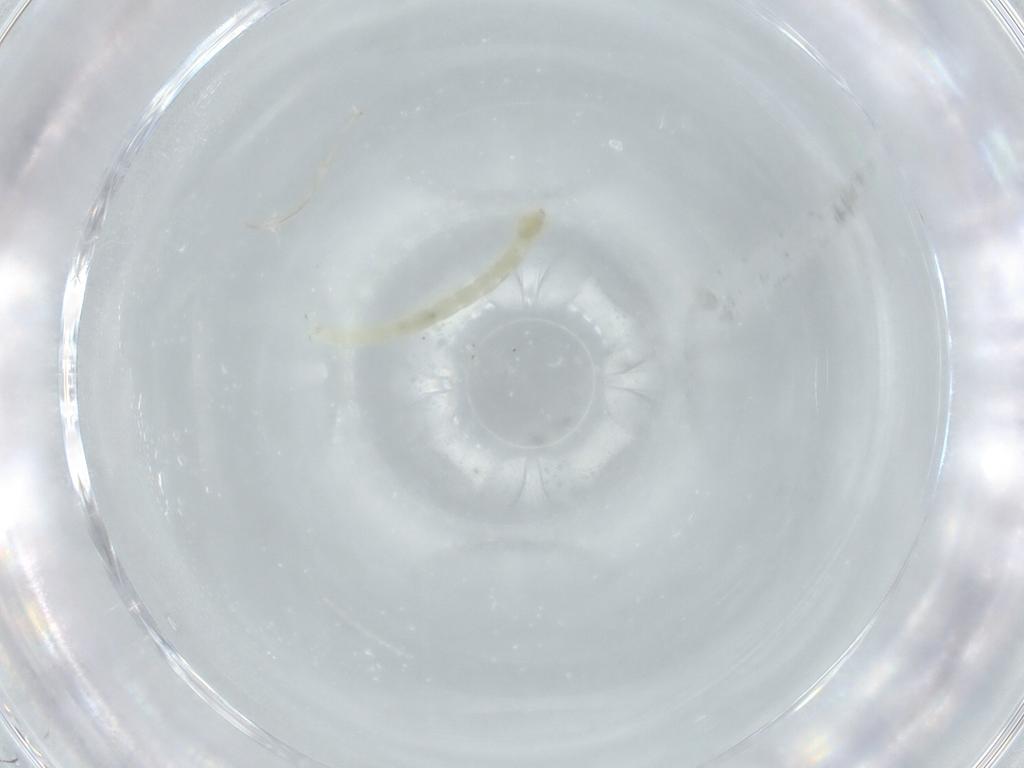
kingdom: Animalia
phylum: Arthropoda
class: Insecta
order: Diptera
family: Chironomidae
